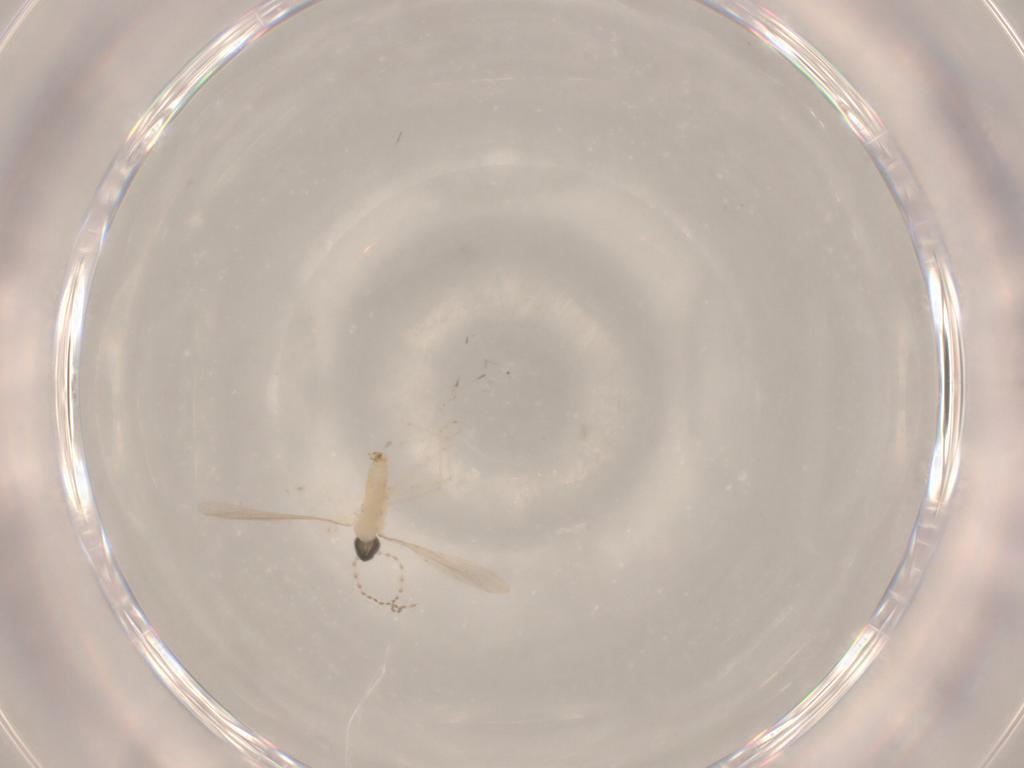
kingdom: Animalia
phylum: Arthropoda
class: Insecta
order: Diptera
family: Cecidomyiidae
